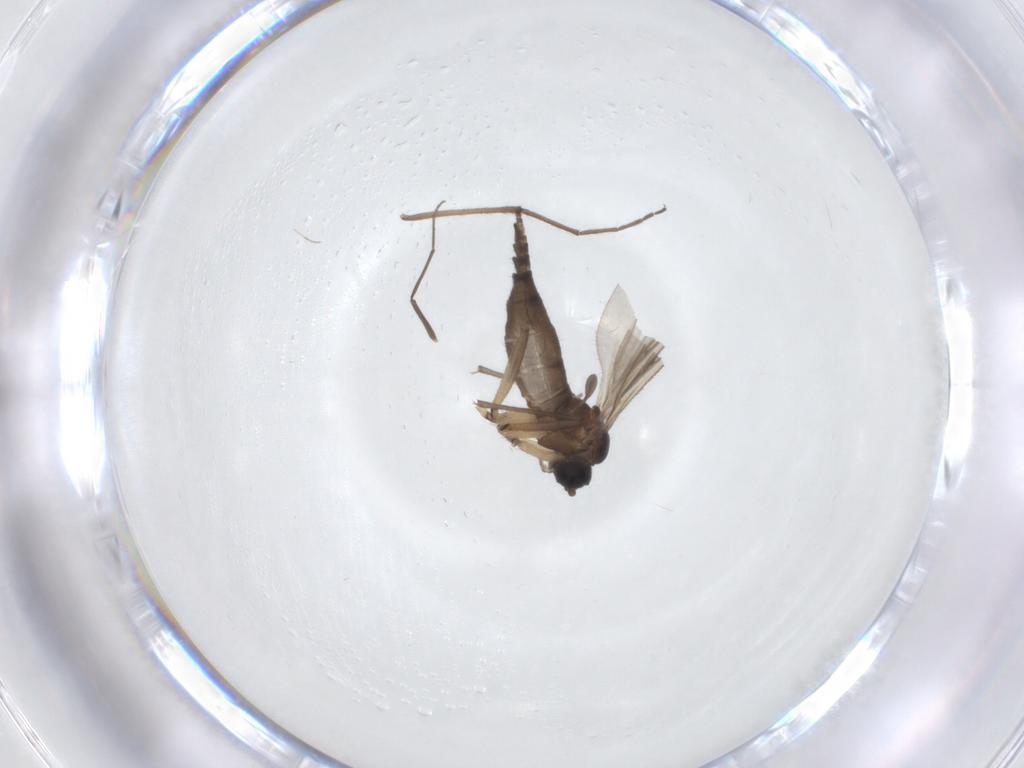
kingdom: Animalia
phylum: Arthropoda
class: Insecta
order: Diptera
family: Sciaridae
